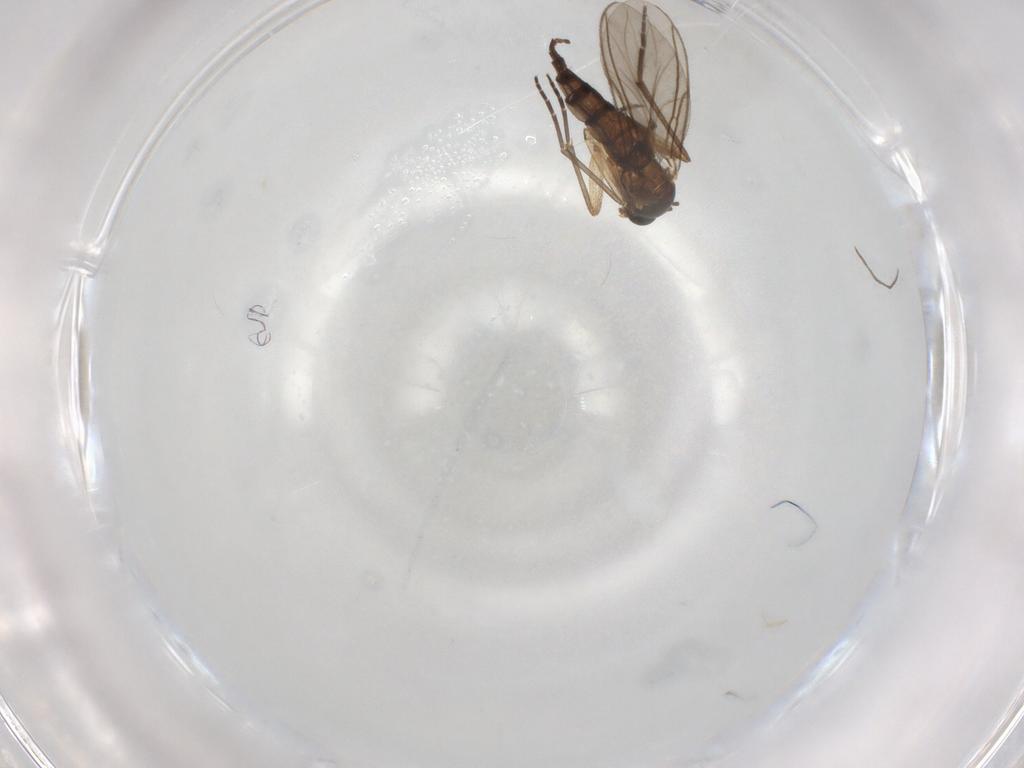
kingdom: Animalia
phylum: Arthropoda
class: Insecta
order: Diptera
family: Chironomidae
